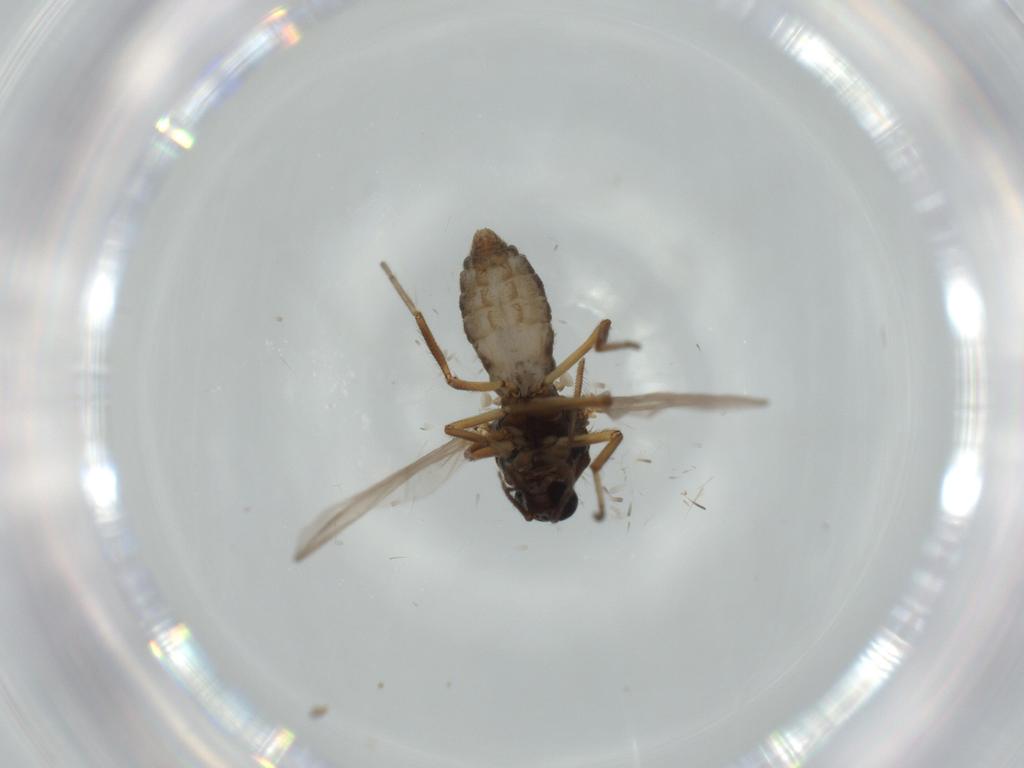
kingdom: Animalia
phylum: Arthropoda
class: Insecta
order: Diptera
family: Ceratopogonidae
